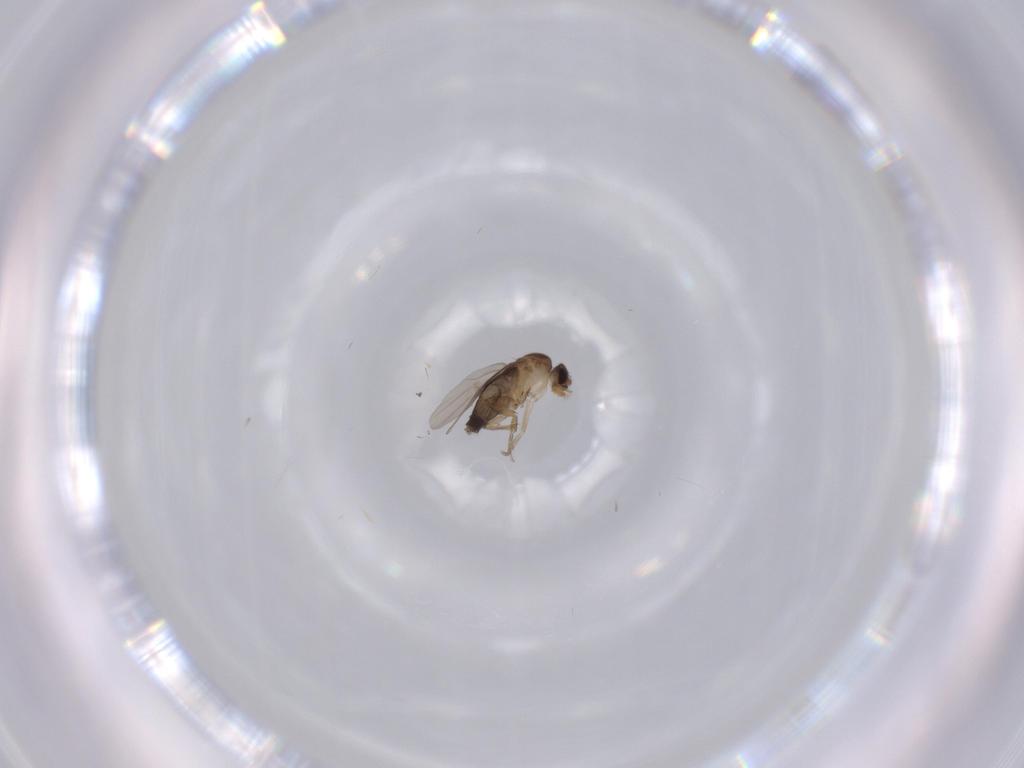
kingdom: Animalia
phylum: Arthropoda
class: Insecta
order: Diptera
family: Phoridae
